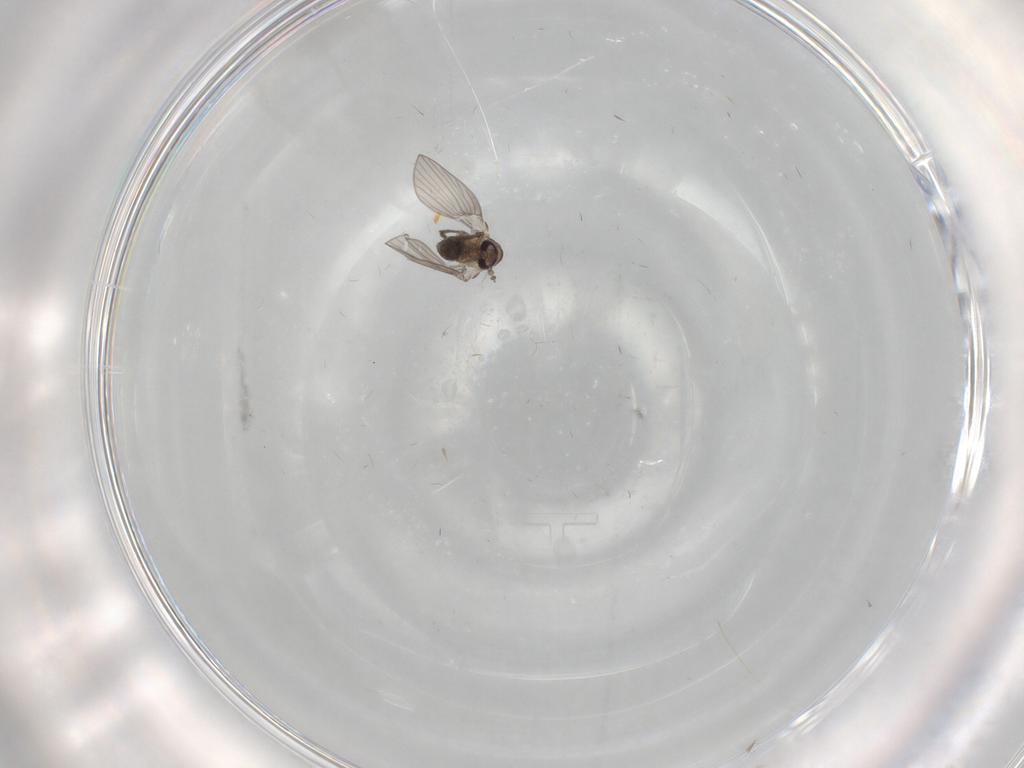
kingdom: Animalia
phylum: Arthropoda
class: Insecta
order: Diptera
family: Psychodidae
